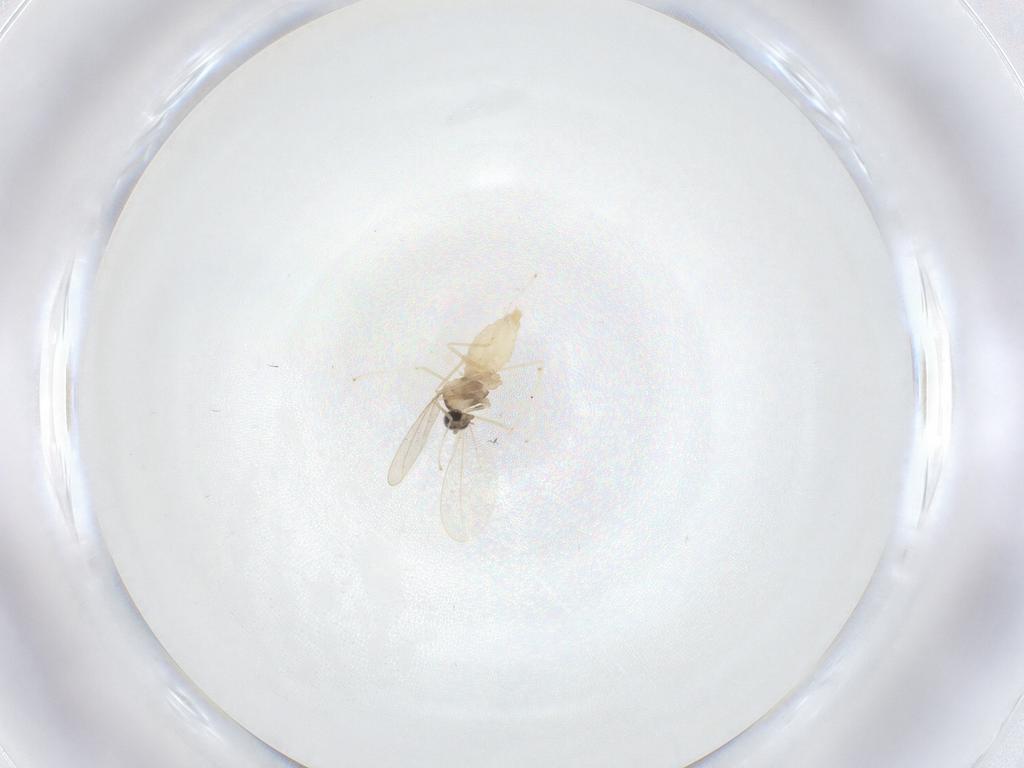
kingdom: Animalia
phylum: Arthropoda
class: Insecta
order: Diptera
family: Cecidomyiidae
